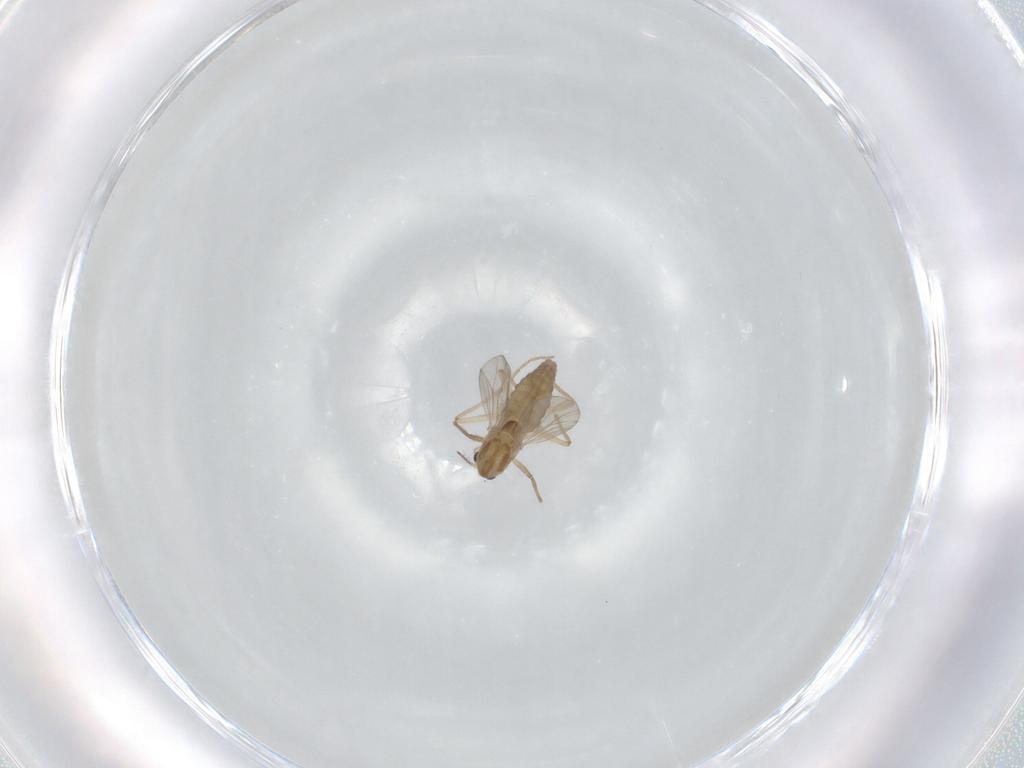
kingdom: Animalia
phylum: Arthropoda
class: Insecta
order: Diptera
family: Chironomidae
